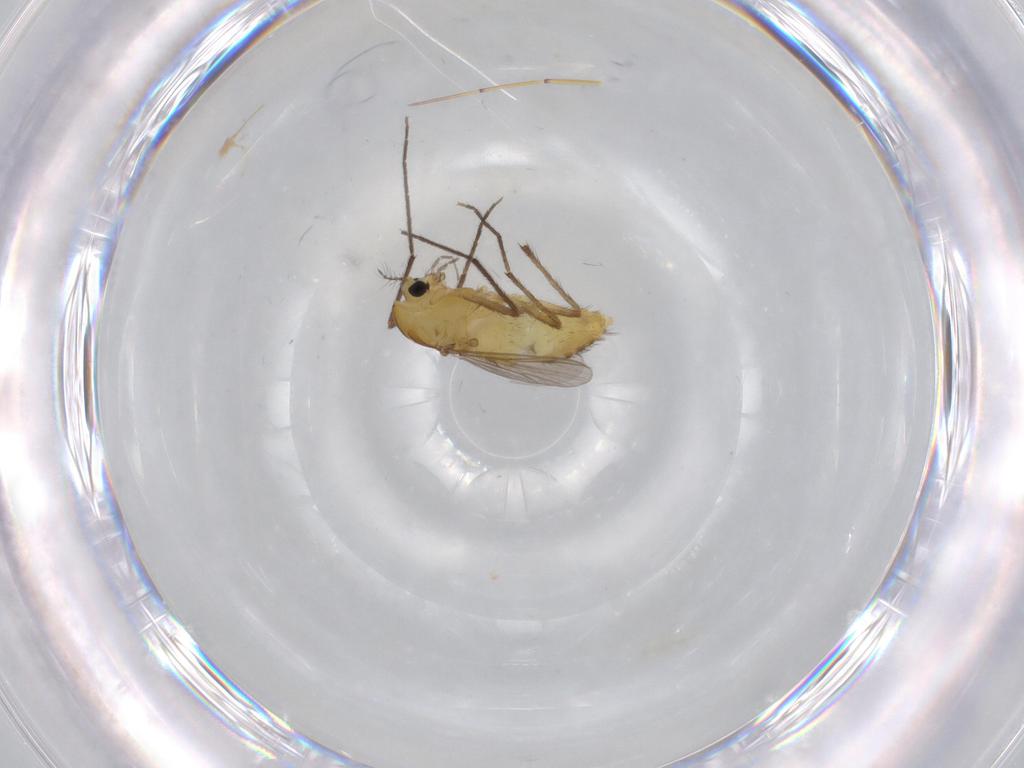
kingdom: Animalia
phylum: Arthropoda
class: Insecta
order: Diptera
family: Chironomidae
